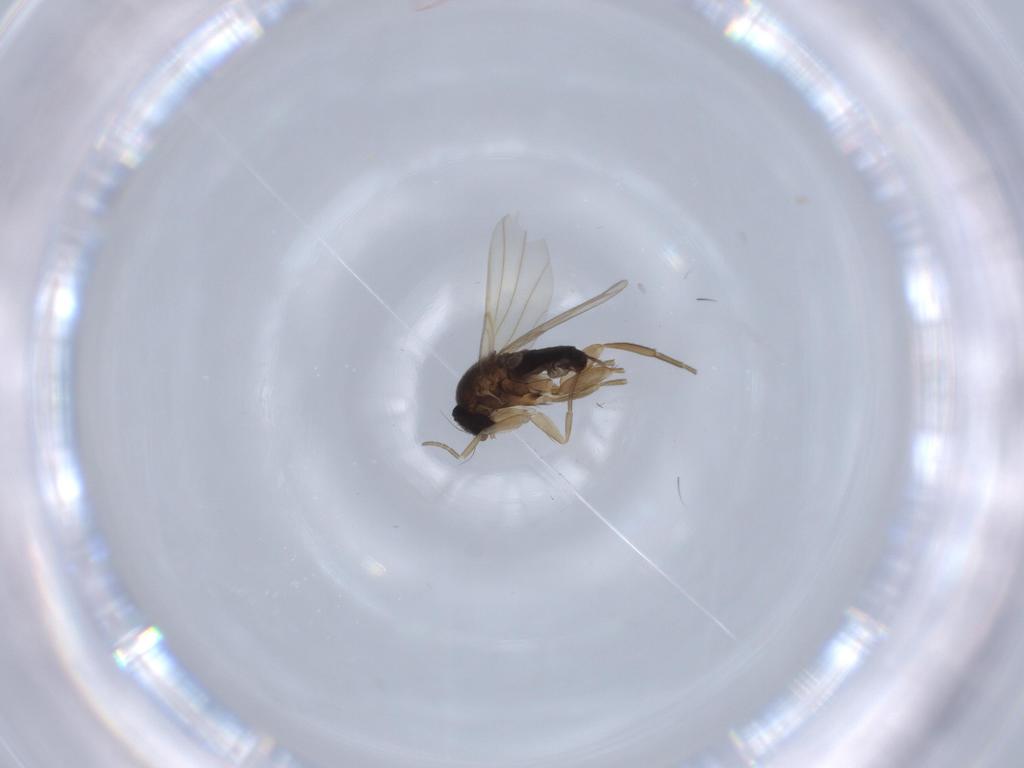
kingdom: Animalia
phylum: Arthropoda
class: Insecta
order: Diptera
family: Phoridae
